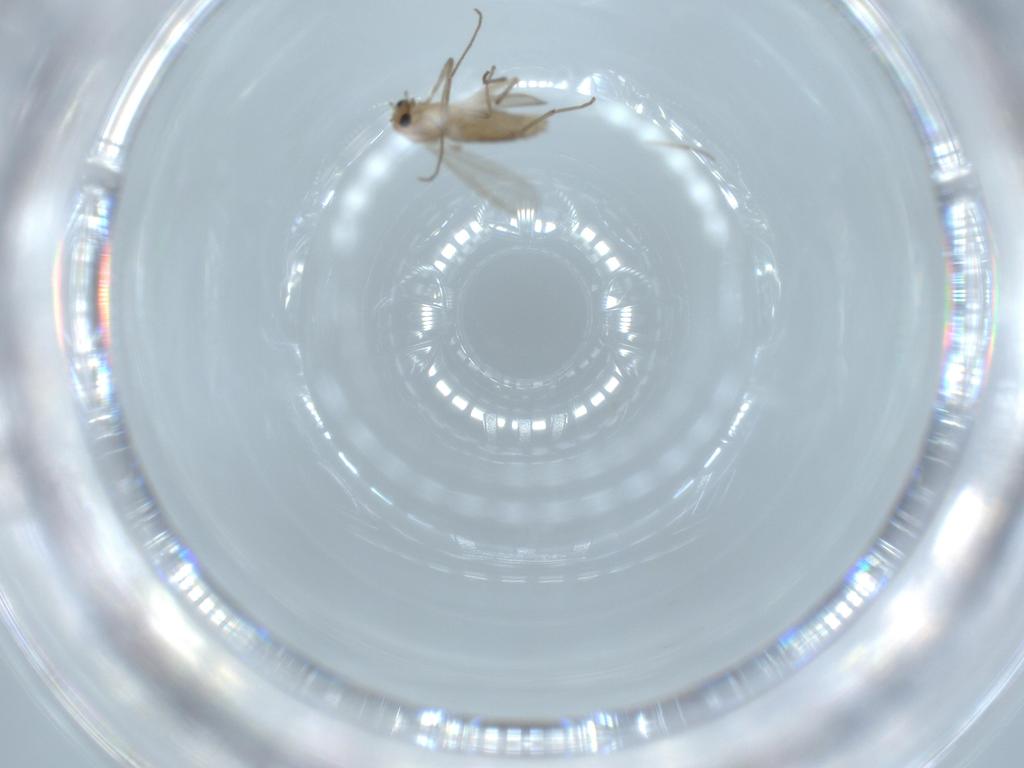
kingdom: Animalia
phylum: Arthropoda
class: Insecta
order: Diptera
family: Chironomidae
